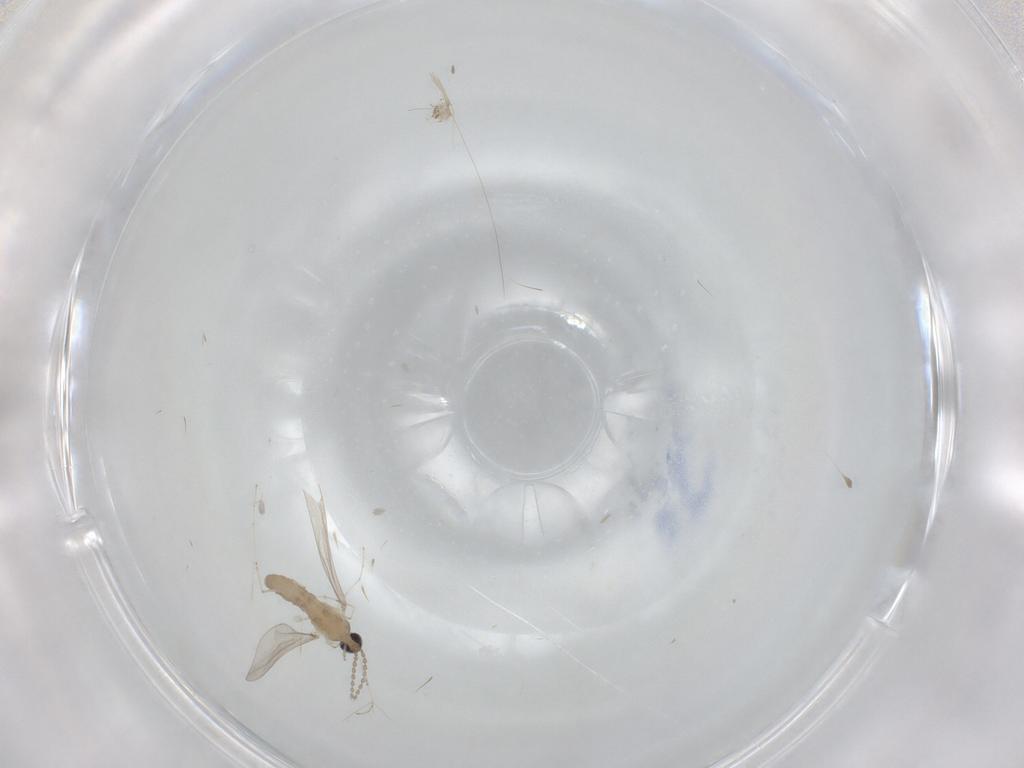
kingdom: Animalia
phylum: Arthropoda
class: Insecta
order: Diptera
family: Cecidomyiidae
